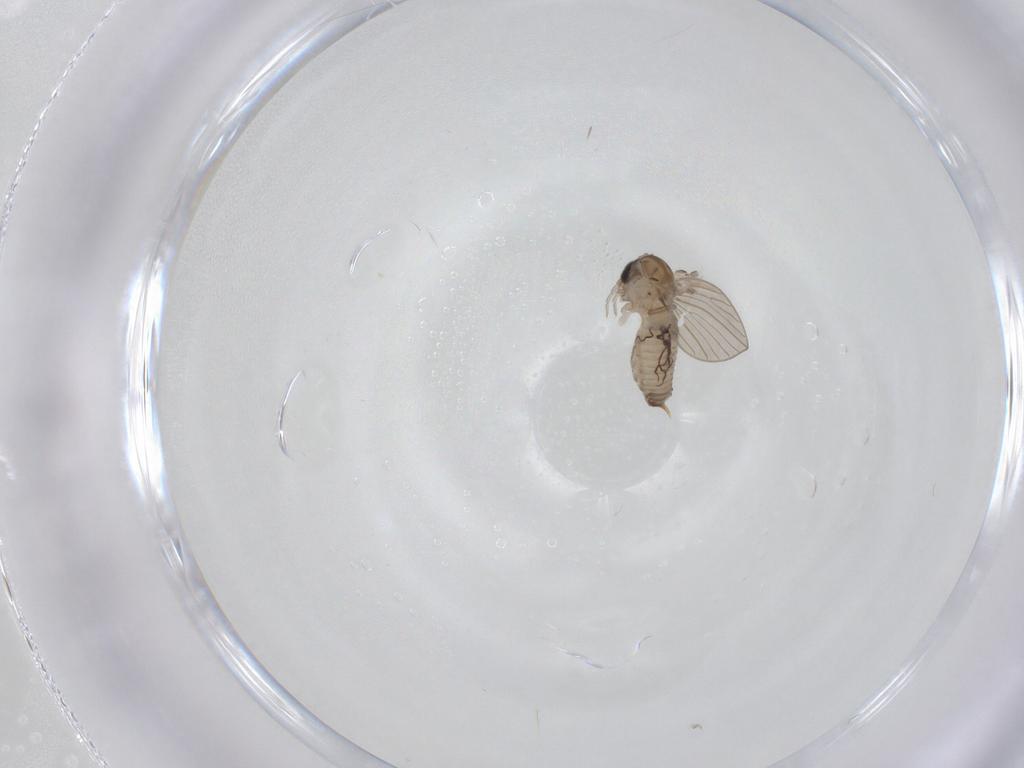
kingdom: Animalia
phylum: Arthropoda
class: Insecta
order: Diptera
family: Psychodidae
